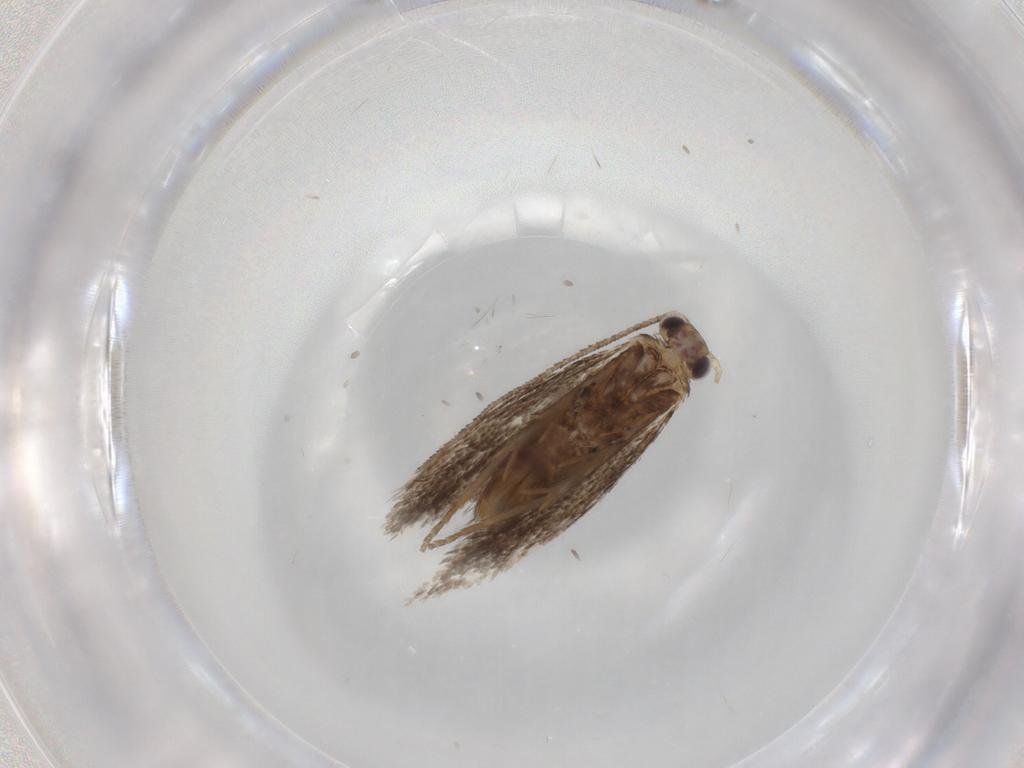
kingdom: Animalia
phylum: Arthropoda
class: Insecta
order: Lepidoptera
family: Tineidae
